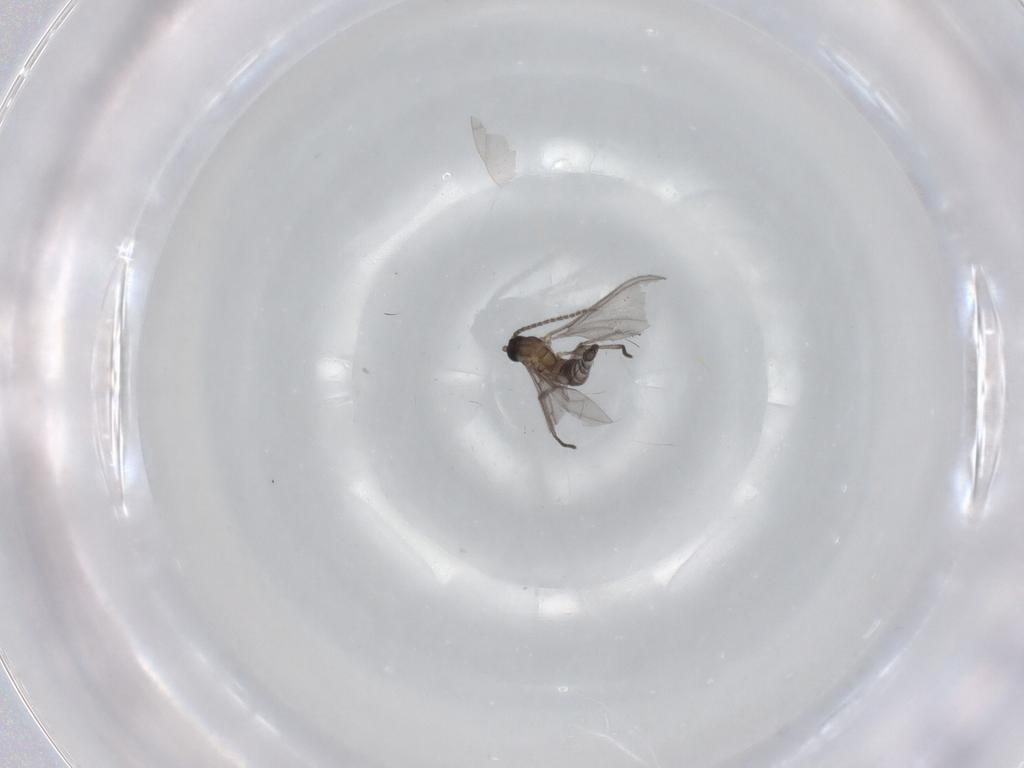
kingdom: Animalia
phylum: Arthropoda
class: Insecta
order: Diptera
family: Sciaridae
